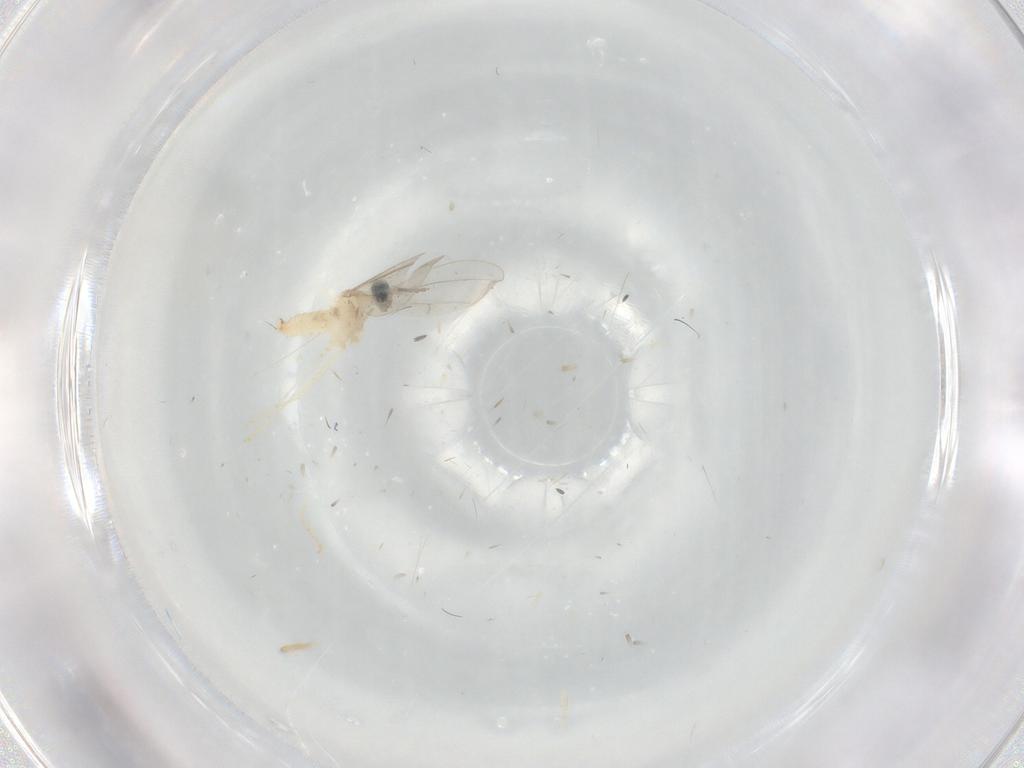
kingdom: Animalia
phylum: Arthropoda
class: Insecta
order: Diptera
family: Cecidomyiidae
